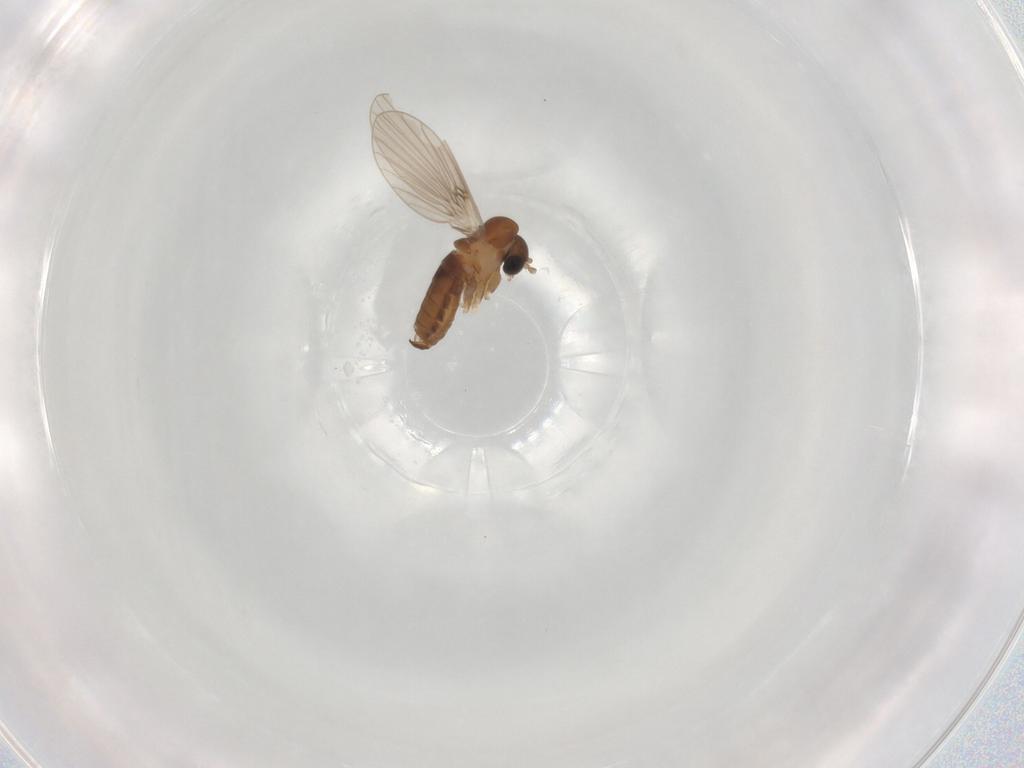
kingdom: Animalia
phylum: Arthropoda
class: Insecta
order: Diptera
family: Psychodidae
